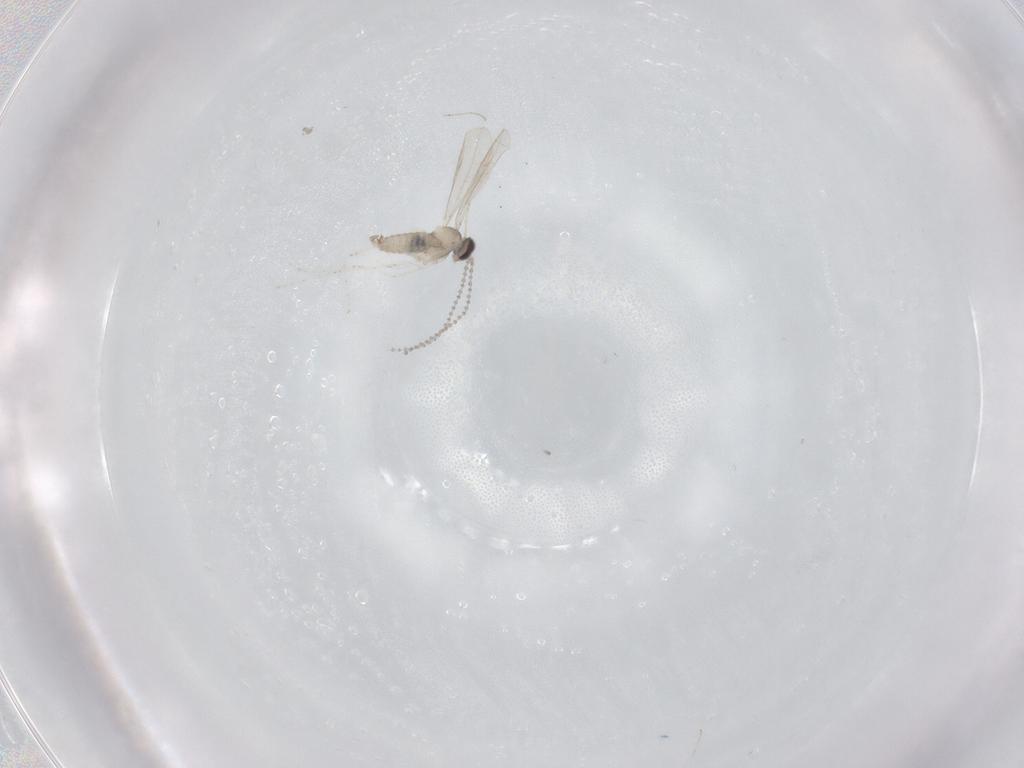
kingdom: Animalia
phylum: Arthropoda
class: Insecta
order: Diptera
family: Cecidomyiidae
